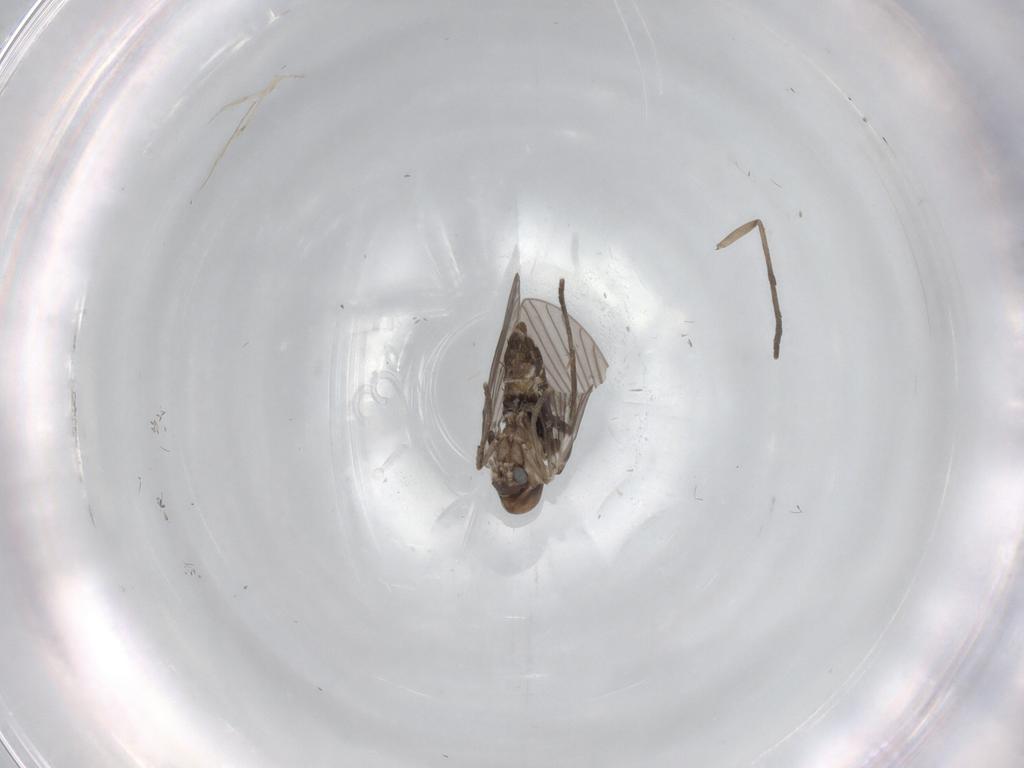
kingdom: Animalia
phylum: Arthropoda
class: Insecta
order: Diptera
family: Psychodidae
